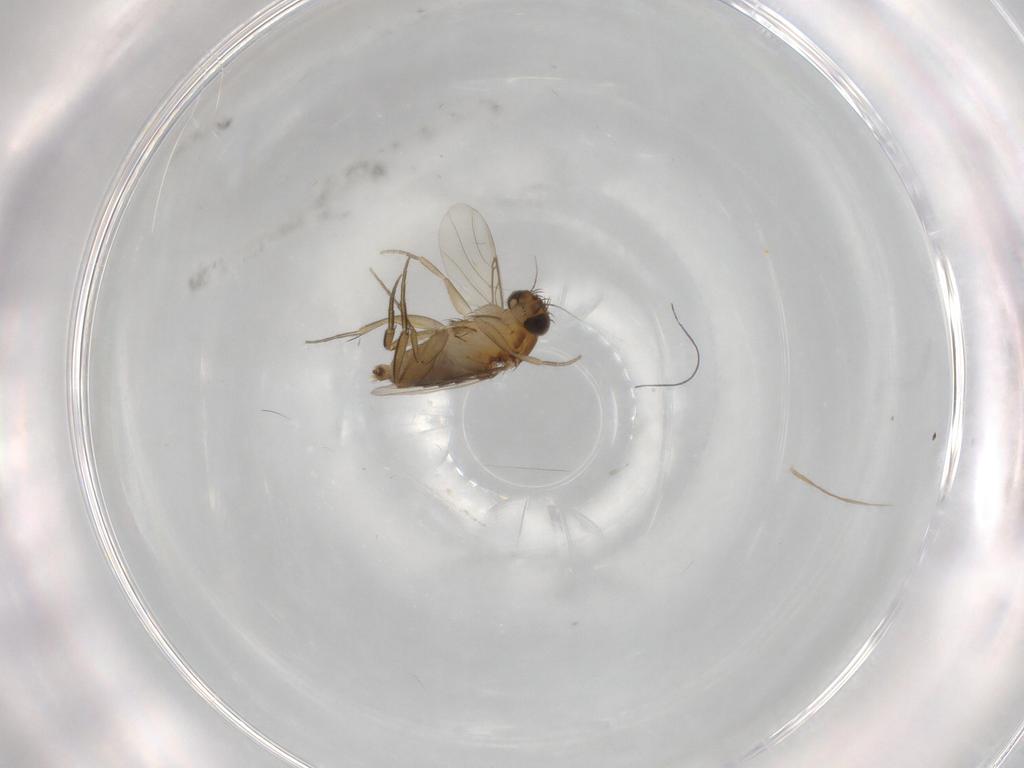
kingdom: Animalia
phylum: Arthropoda
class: Insecta
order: Diptera
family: Phoridae
